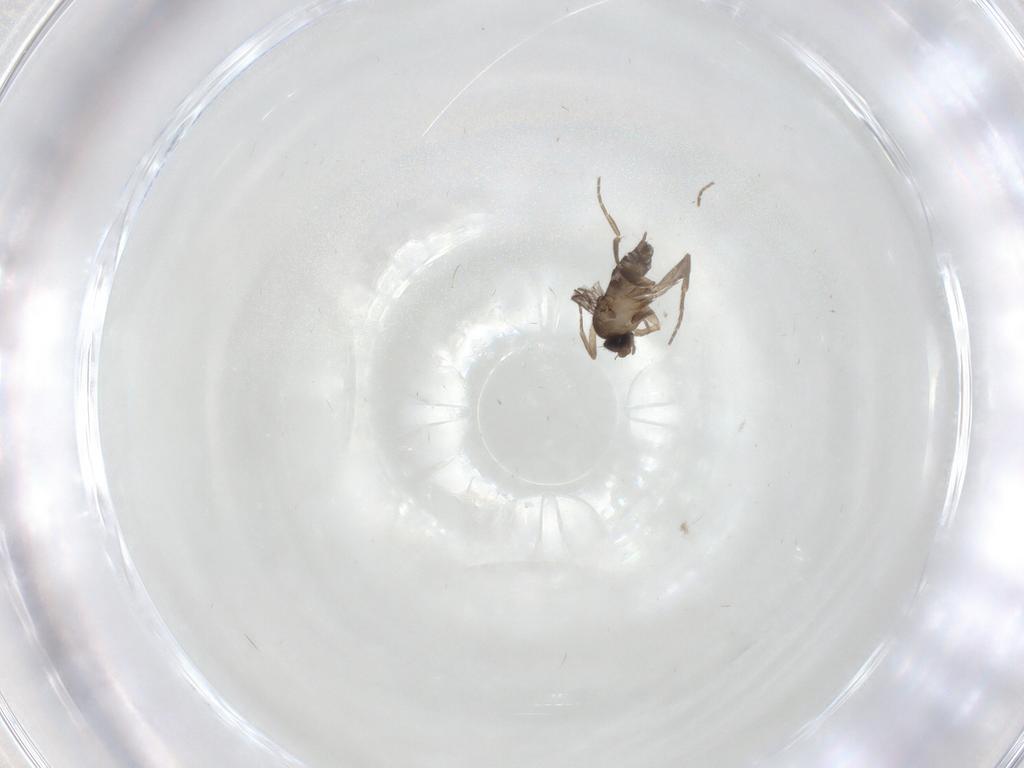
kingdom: Animalia
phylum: Arthropoda
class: Insecta
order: Diptera
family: Phoridae
